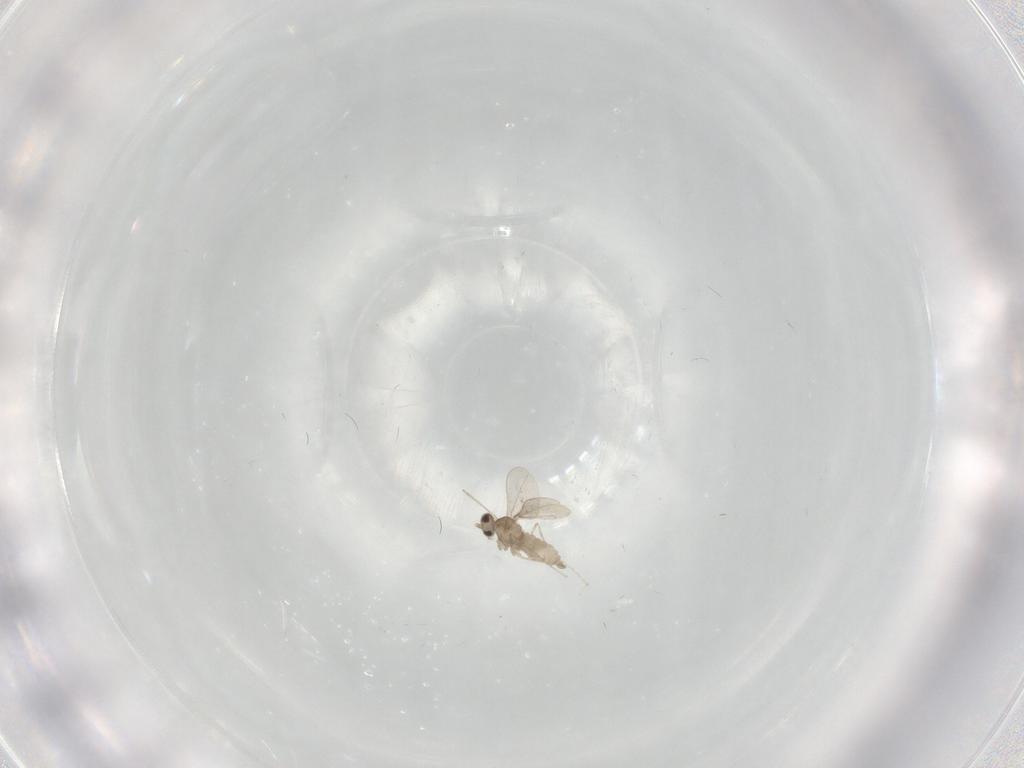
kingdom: Animalia
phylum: Arthropoda
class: Insecta
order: Diptera
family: Cecidomyiidae
